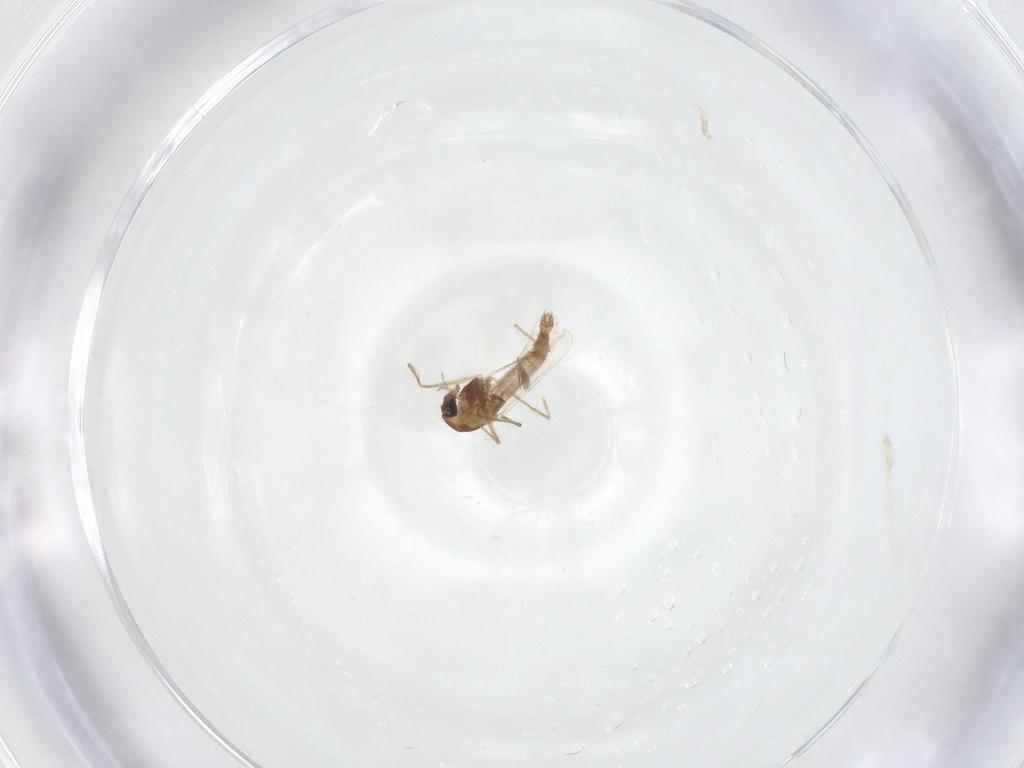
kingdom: Animalia
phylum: Arthropoda
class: Insecta
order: Diptera
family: Chironomidae
